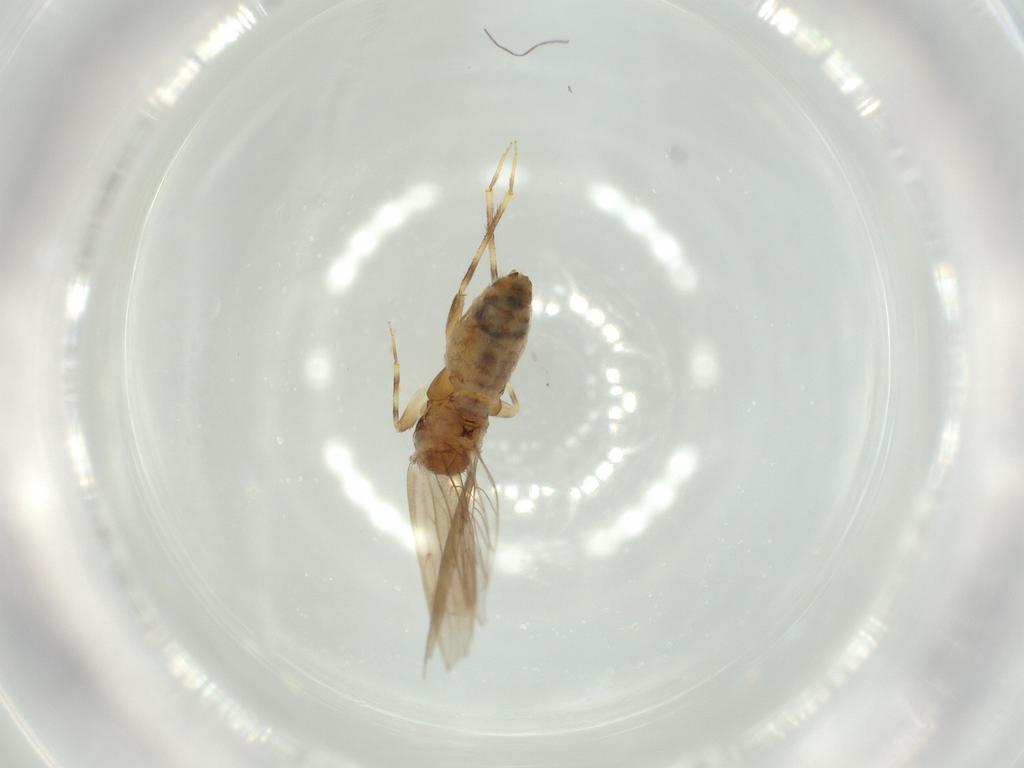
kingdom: Animalia
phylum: Arthropoda
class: Insecta
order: Psocodea
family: Lepidopsocidae
